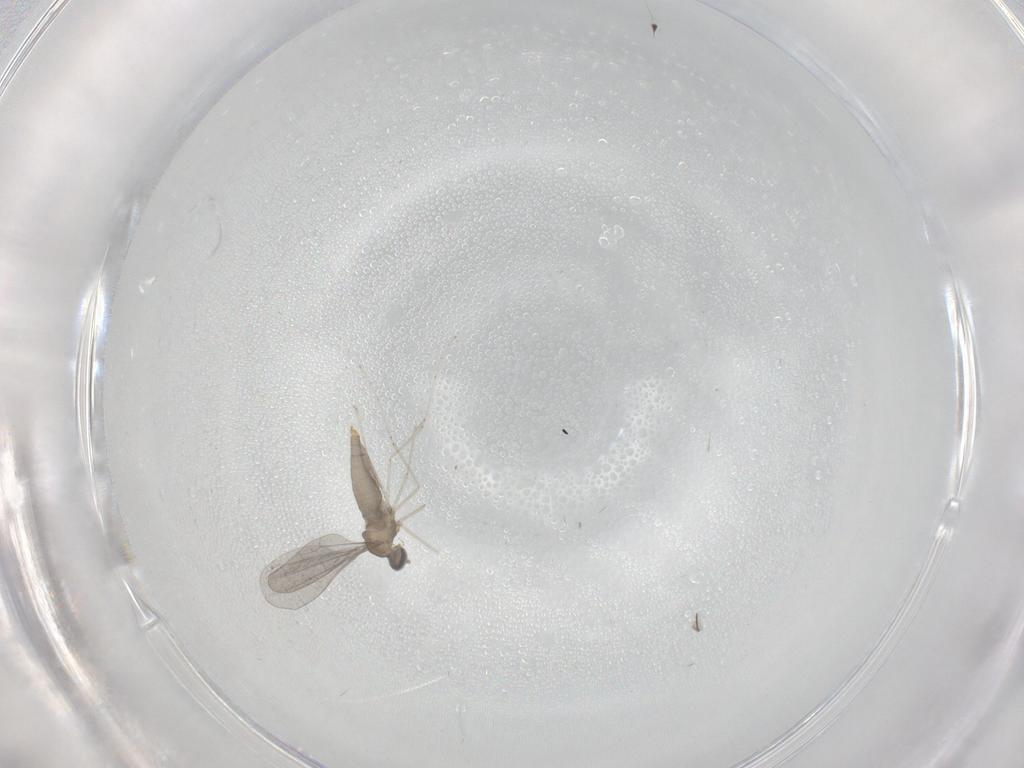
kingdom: Animalia
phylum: Arthropoda
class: Insecta
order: Diptera
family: Cecidomyiidae
